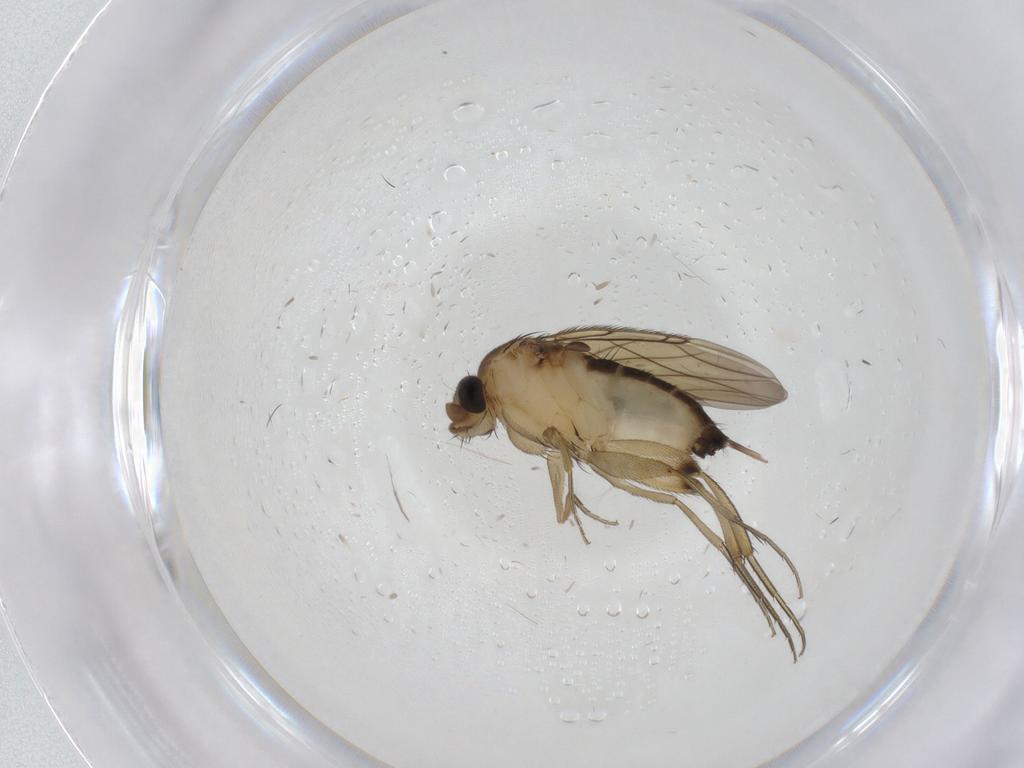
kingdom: Animalia
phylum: Arthropoda
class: Insecta
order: Diptera
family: Phoridae
